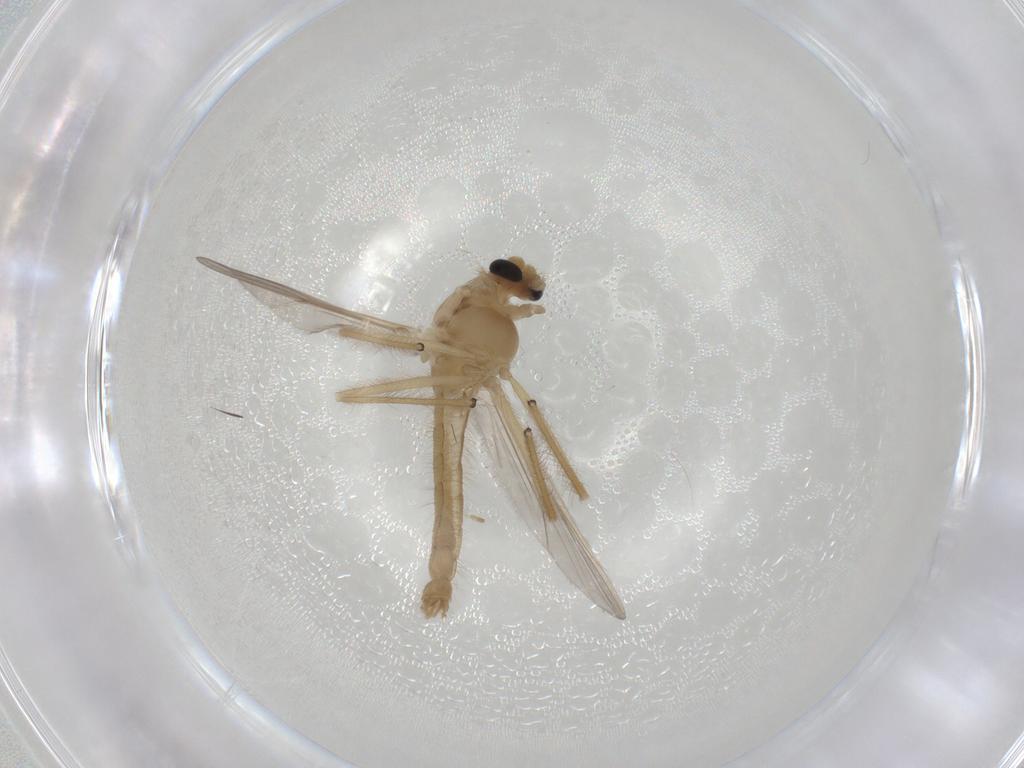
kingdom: Animalia
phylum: Arthropoda
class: Insecta
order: Diptera
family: Chironomidae
